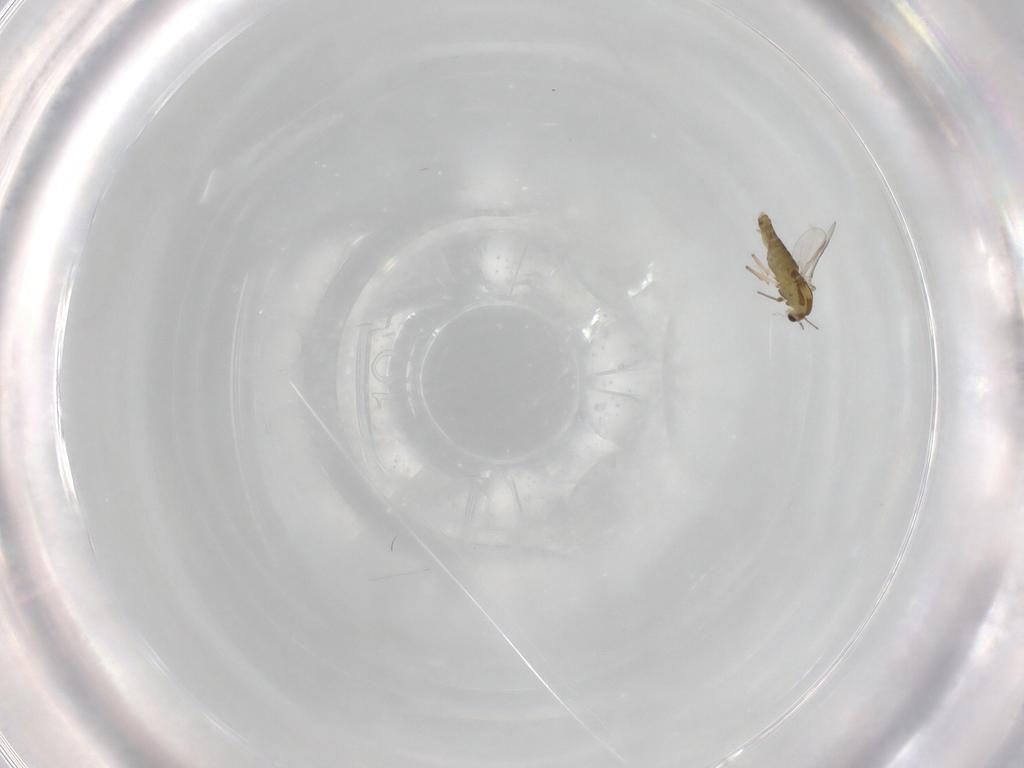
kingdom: Animalia
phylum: Arthropoda
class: Insecta
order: Diptera
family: Chironomidae
